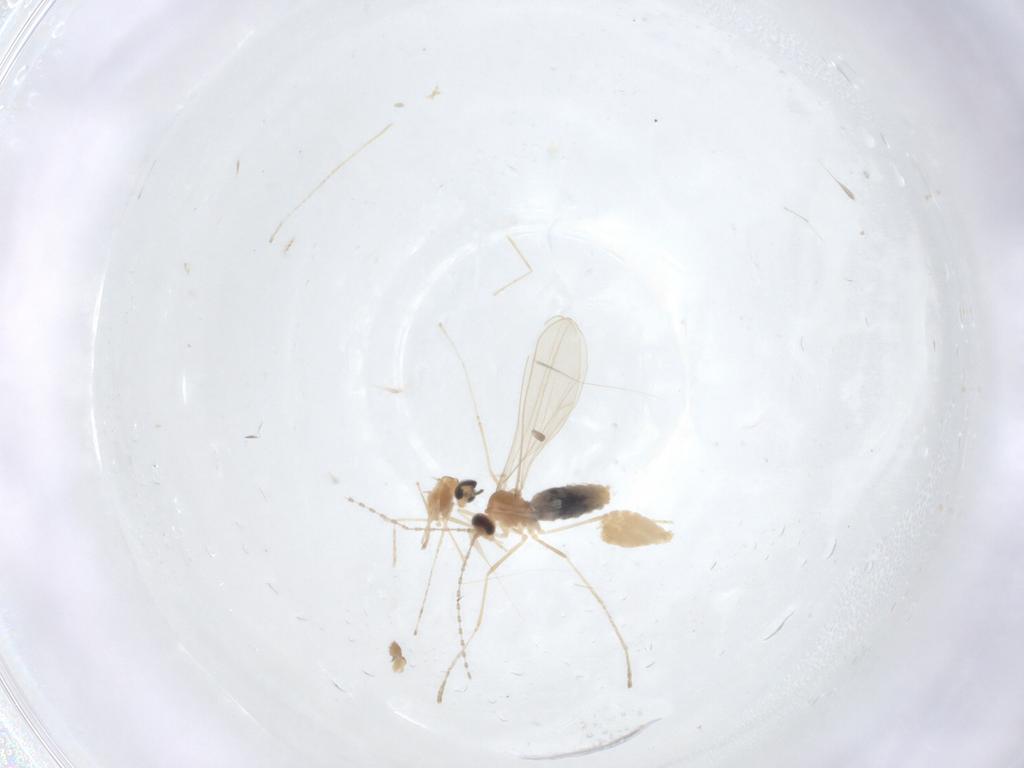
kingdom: Animalia
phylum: Arthropoda
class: Insecta
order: Diptera
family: Cecidomyiidae
